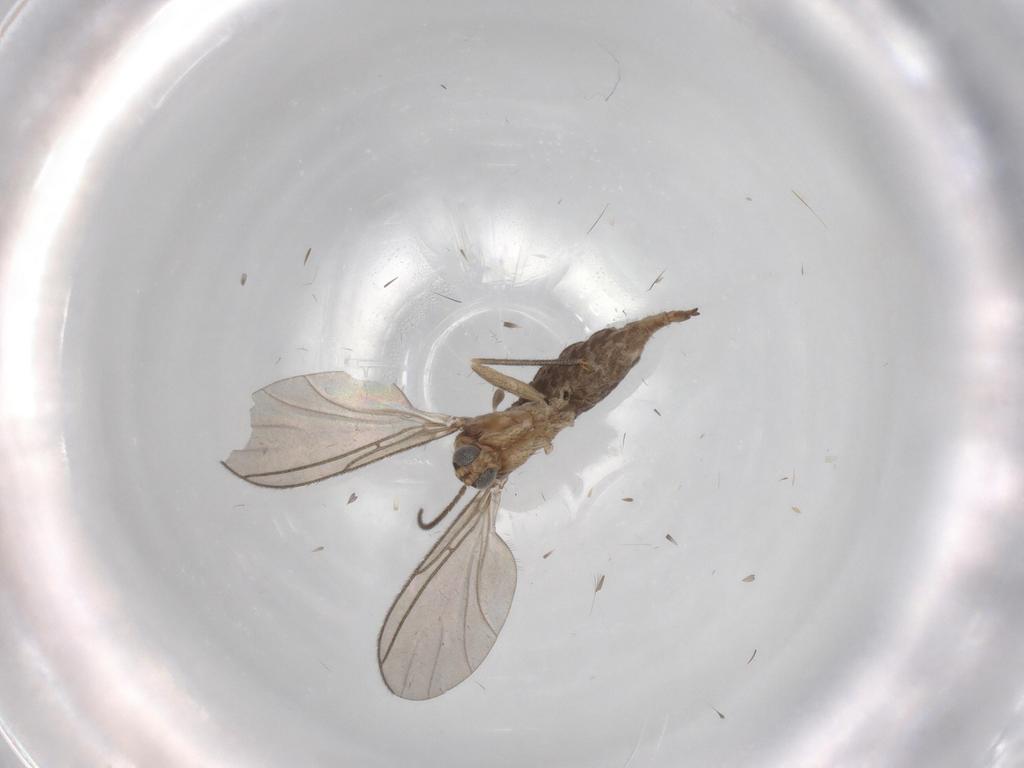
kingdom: Animalia
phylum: Arthropoda
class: Insecta
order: Diptera
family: Sciaridae
